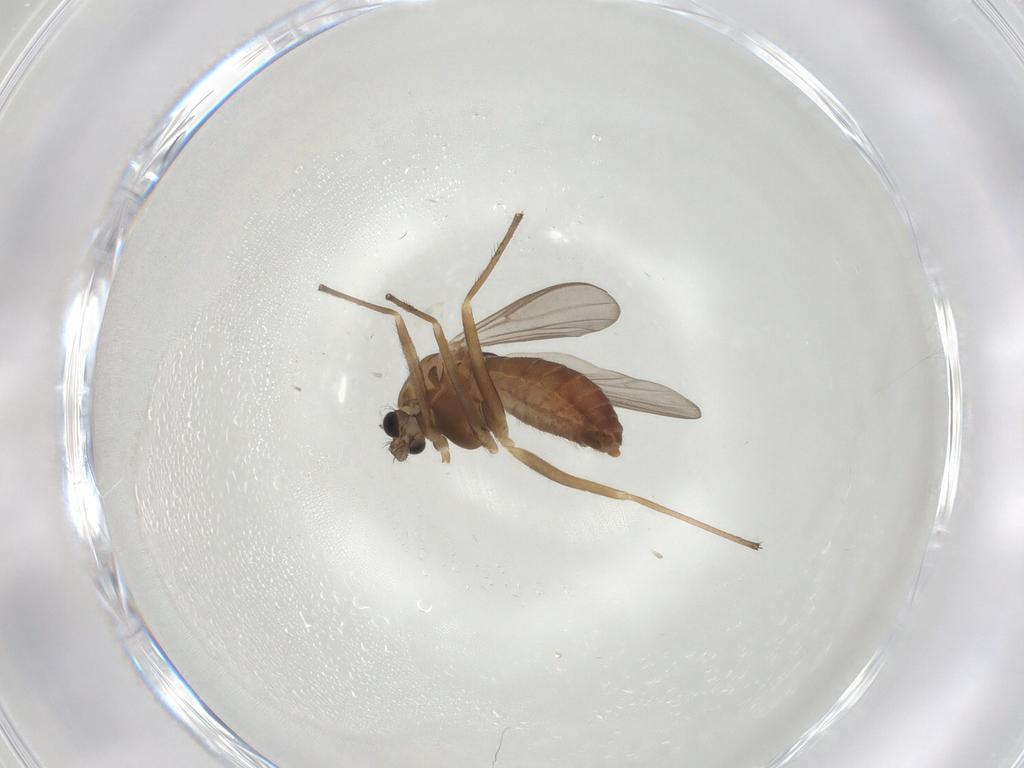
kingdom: Animalia
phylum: Arthropoda
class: Insecta
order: Diptera
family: Chironomidae
